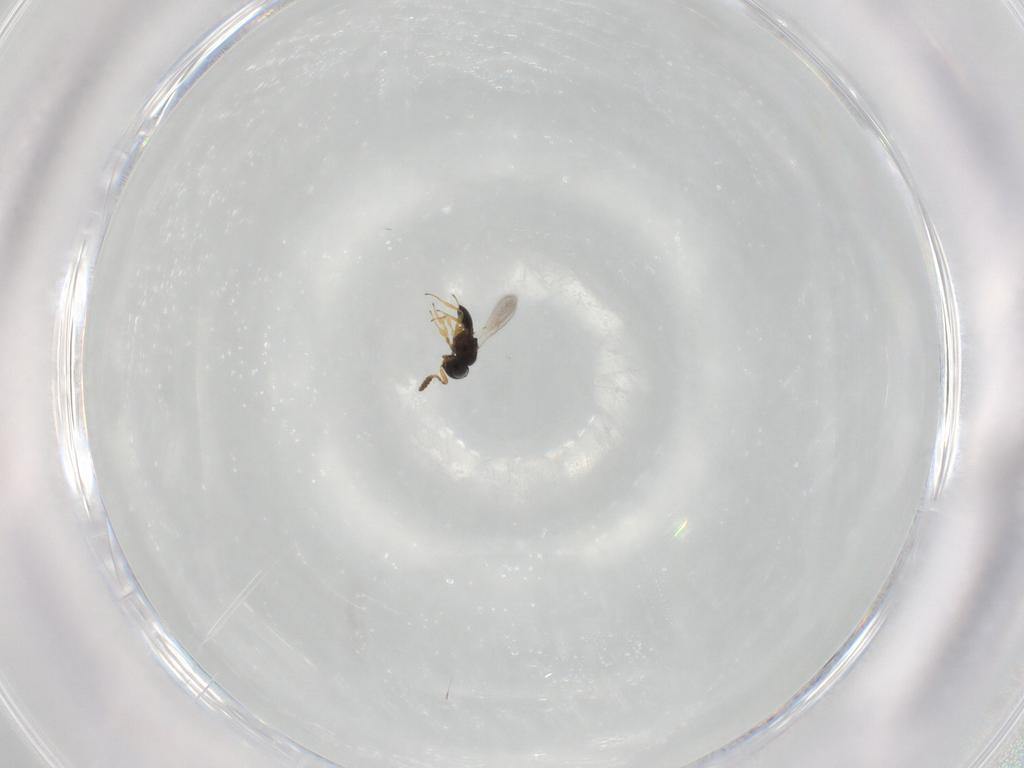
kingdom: Animalia
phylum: Arthropoda
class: Insecta
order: Hymenoptera
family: Scelionidae
